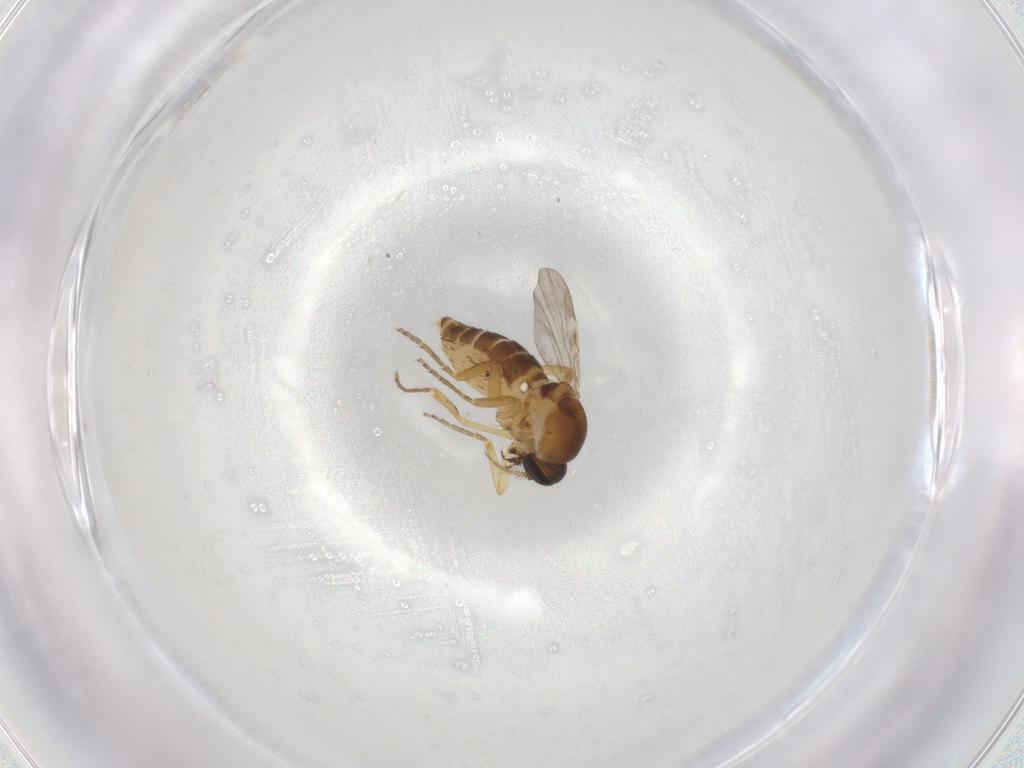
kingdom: Animalia
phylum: Arthropoda
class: Insecta
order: Diptera
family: Ceratopogonidae
